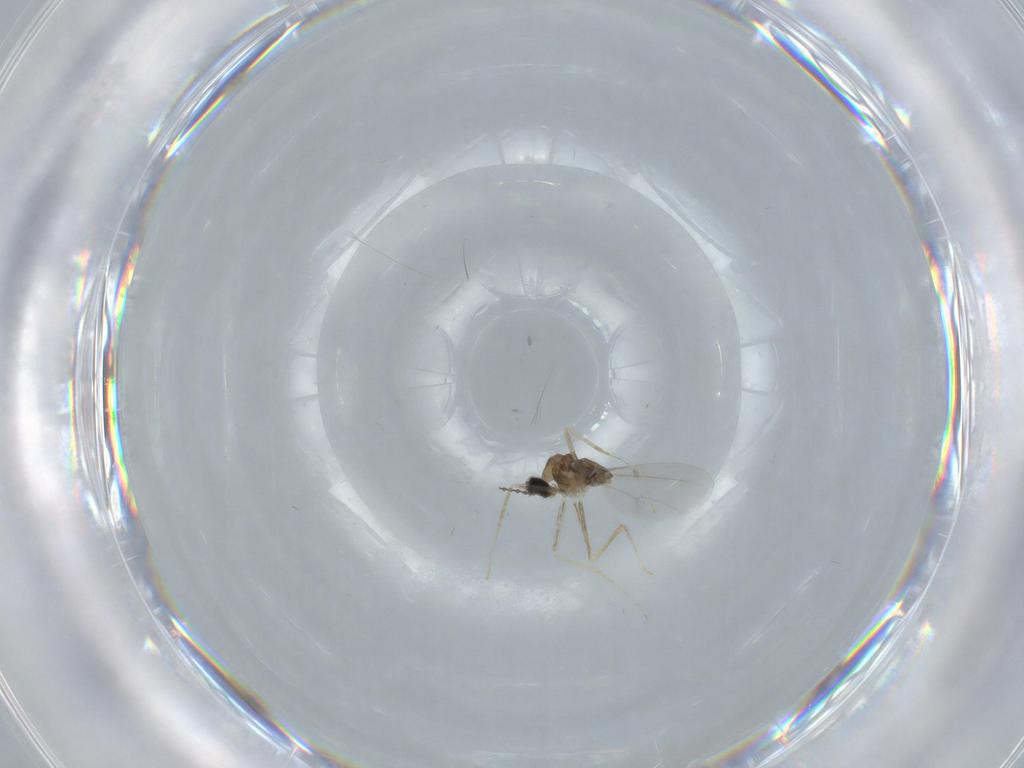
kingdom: Animalia
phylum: Arthropoda
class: Insecta
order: Diptera
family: Cecidomyiidae
